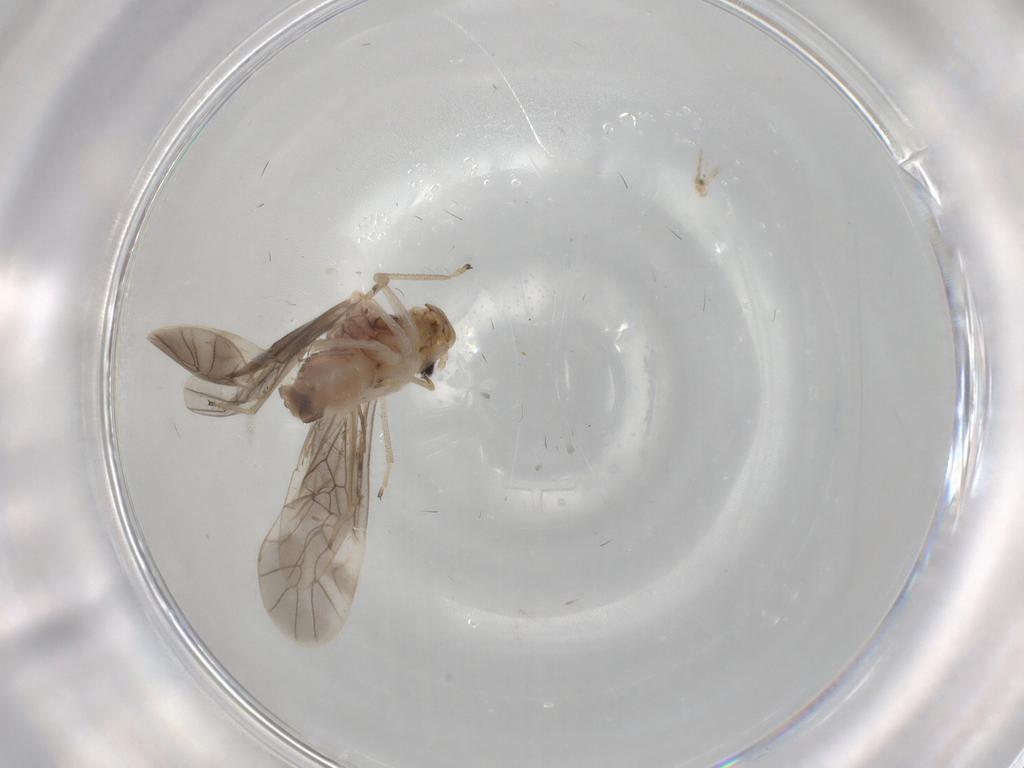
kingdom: Animalia
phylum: Arthropoda
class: Insecta
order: Psocodea
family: Caeciliusidae
